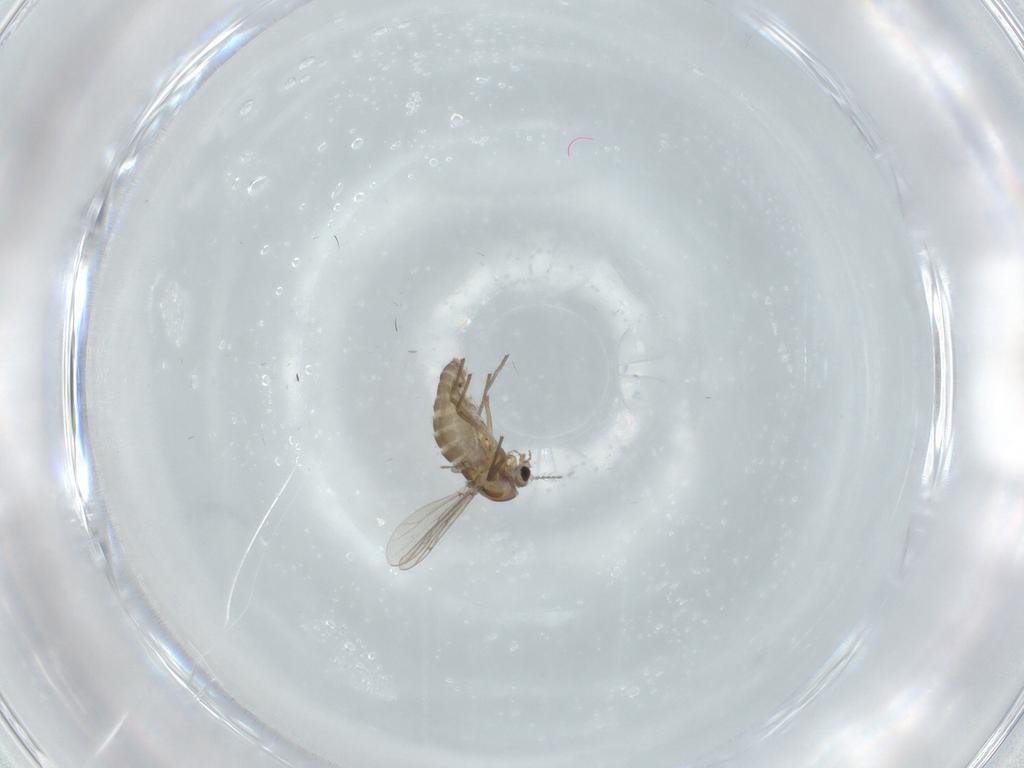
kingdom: Animalia
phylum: Arthropoda
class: Insecta
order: Diptera
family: Chironomidae
